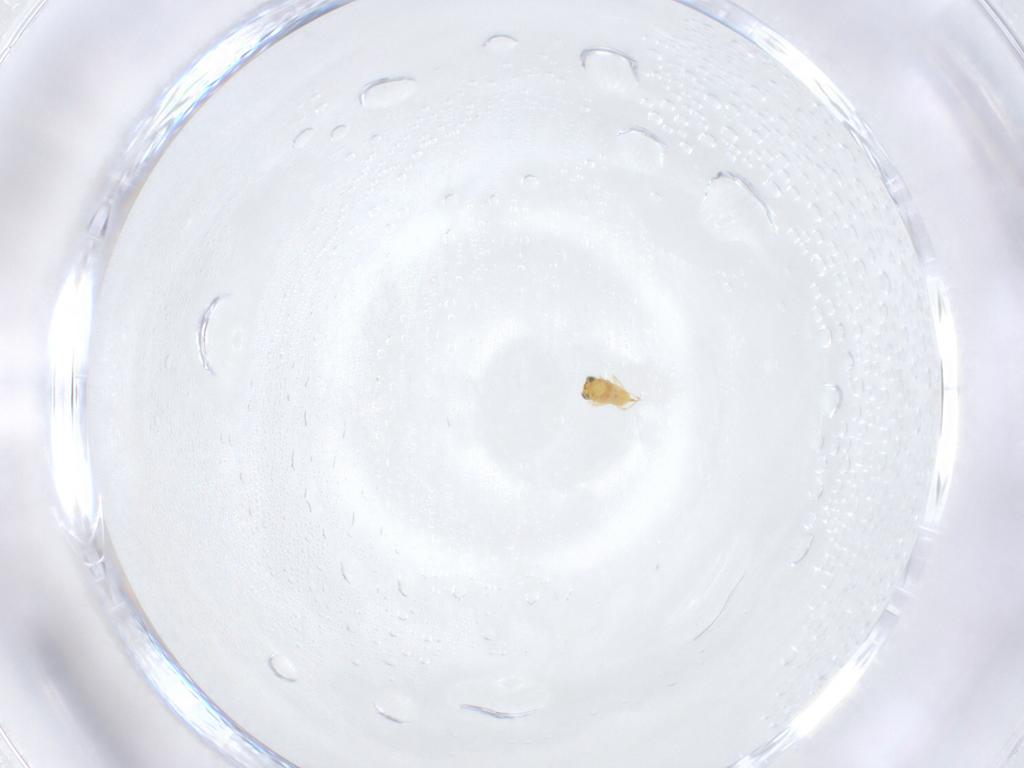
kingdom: Animalia
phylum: Arthropoda
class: Insecta
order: Hymenoptera
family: Aphelinidae
